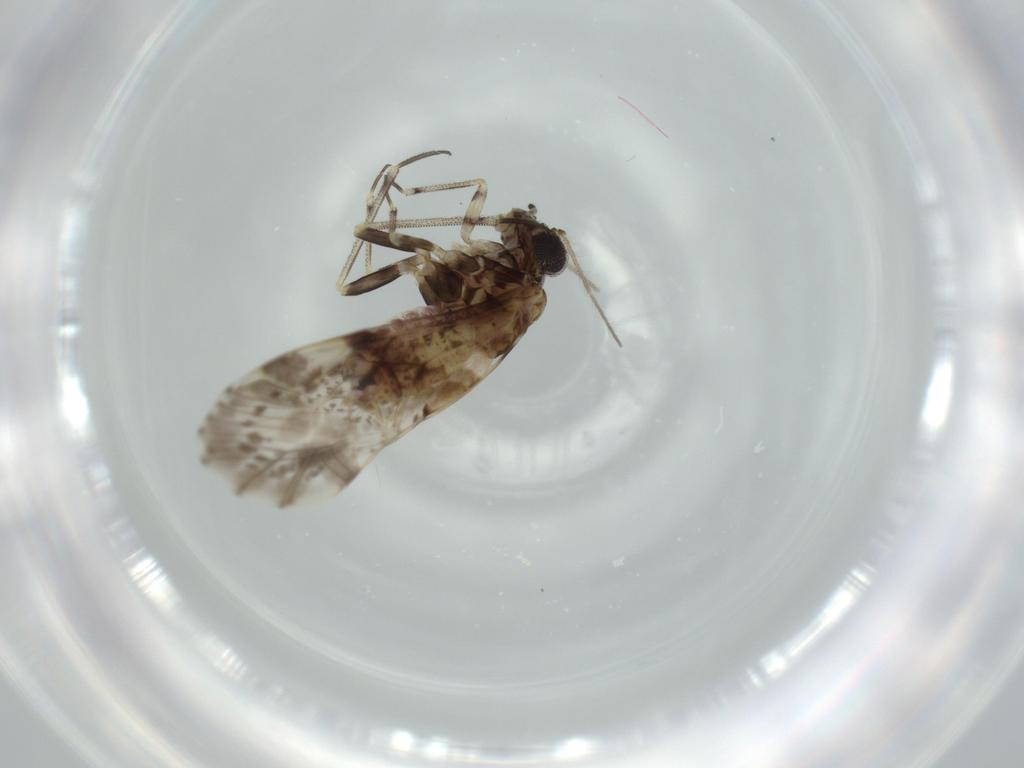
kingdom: Animalia
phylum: Arthropoda
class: Insecta
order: Psocodea
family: Psocidae
